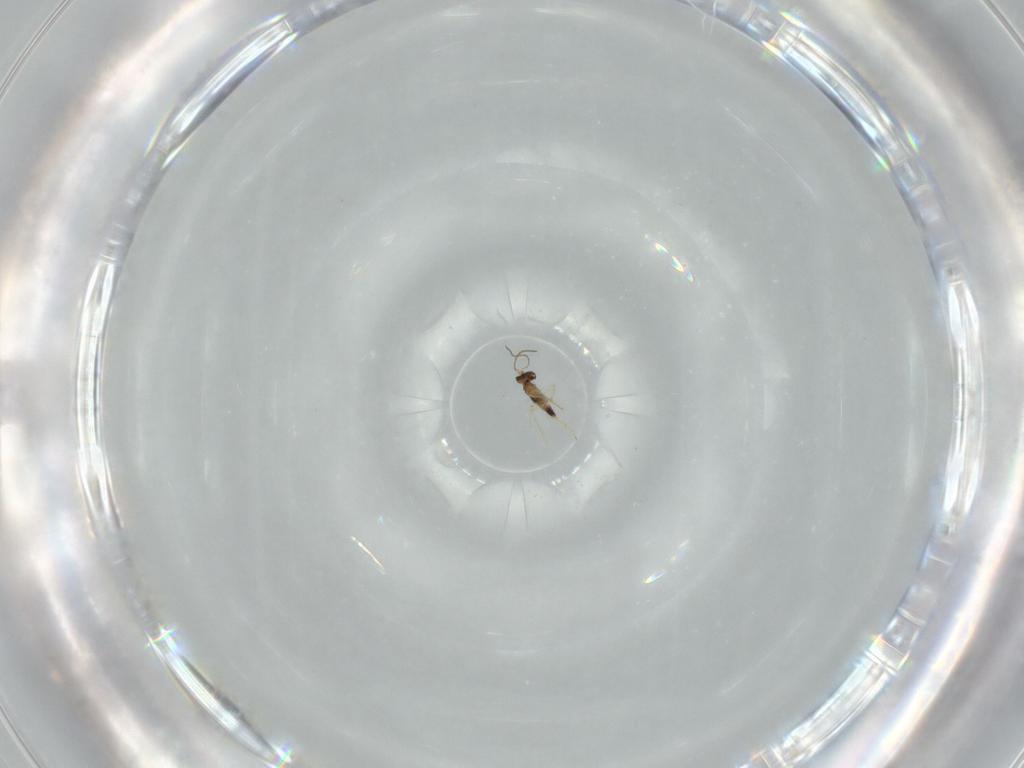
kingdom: Animalia
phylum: Arthropoda
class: Insecta
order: Hymenoptera
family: Mymaridae
